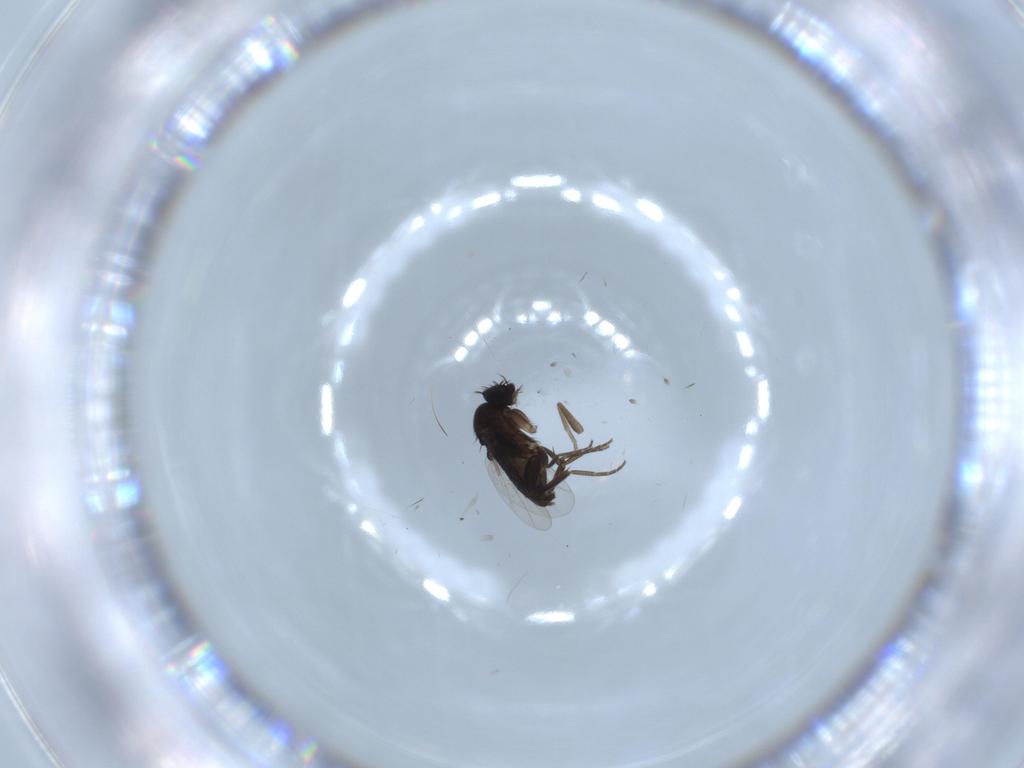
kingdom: Animalia
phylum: Arthropoda
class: Insecta
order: Diptera
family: Phoridae
